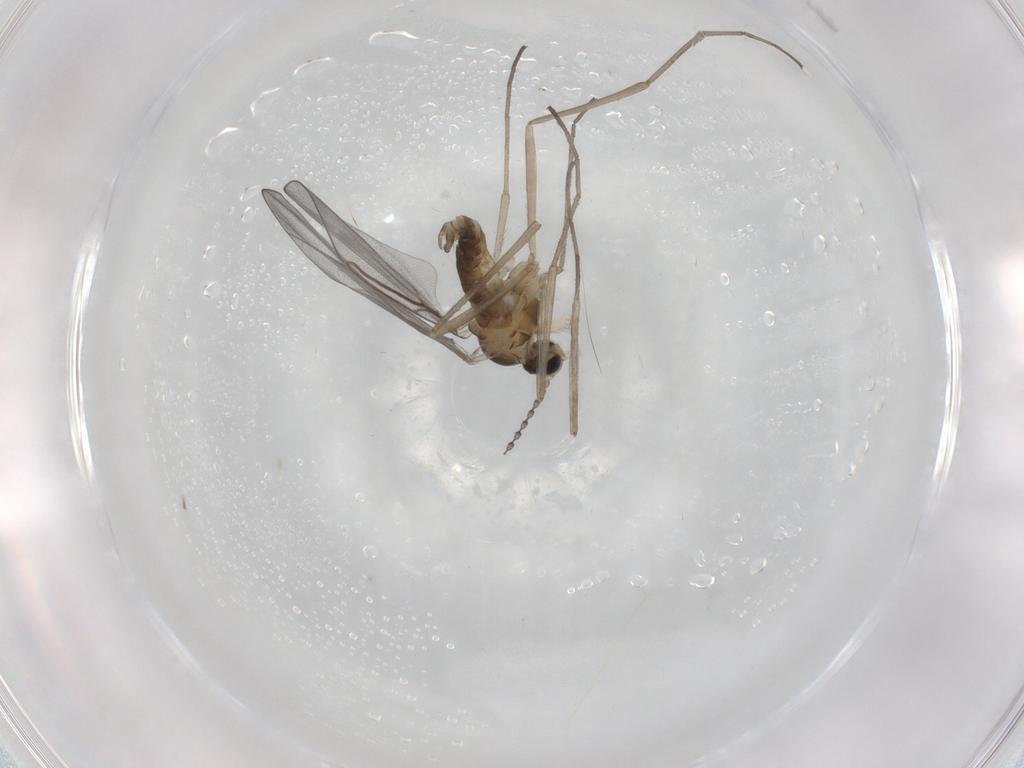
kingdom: Animalia
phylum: Arthropoda
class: Insecta
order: Diptera
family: Cecidomyiidae
